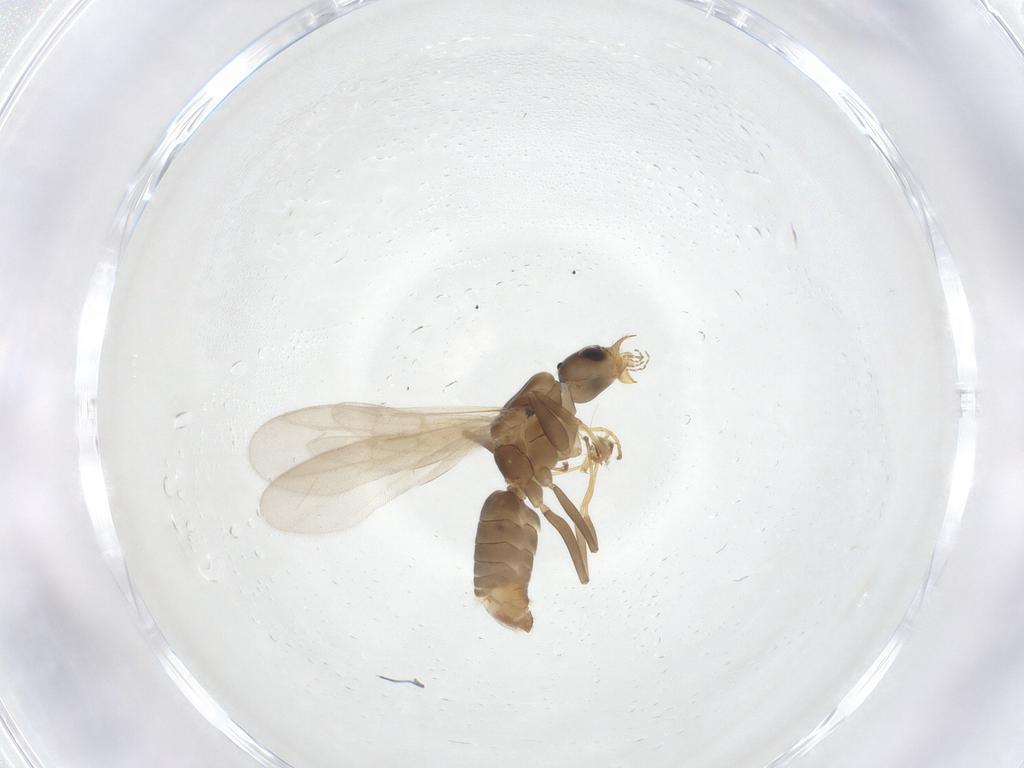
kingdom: Animalia
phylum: Arthropoda
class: Insecta
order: Hymenoptera
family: Formicidae
